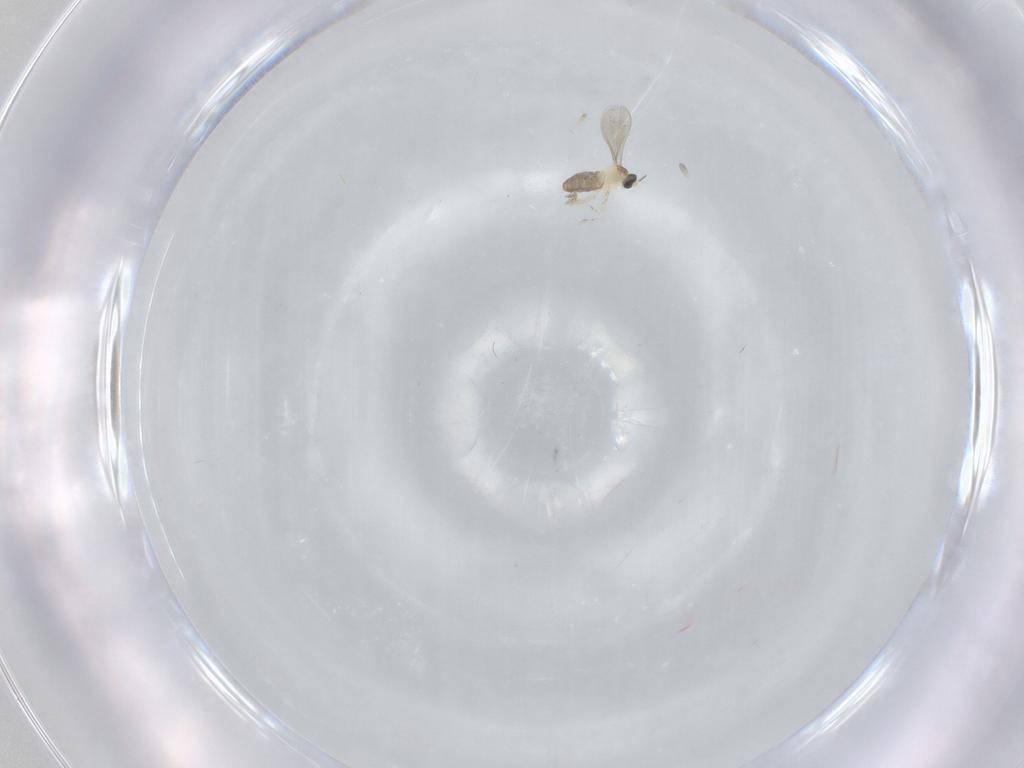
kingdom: Animalia
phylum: Arthropoda
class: Insecta
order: Diptera
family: Cecidomyiidae
